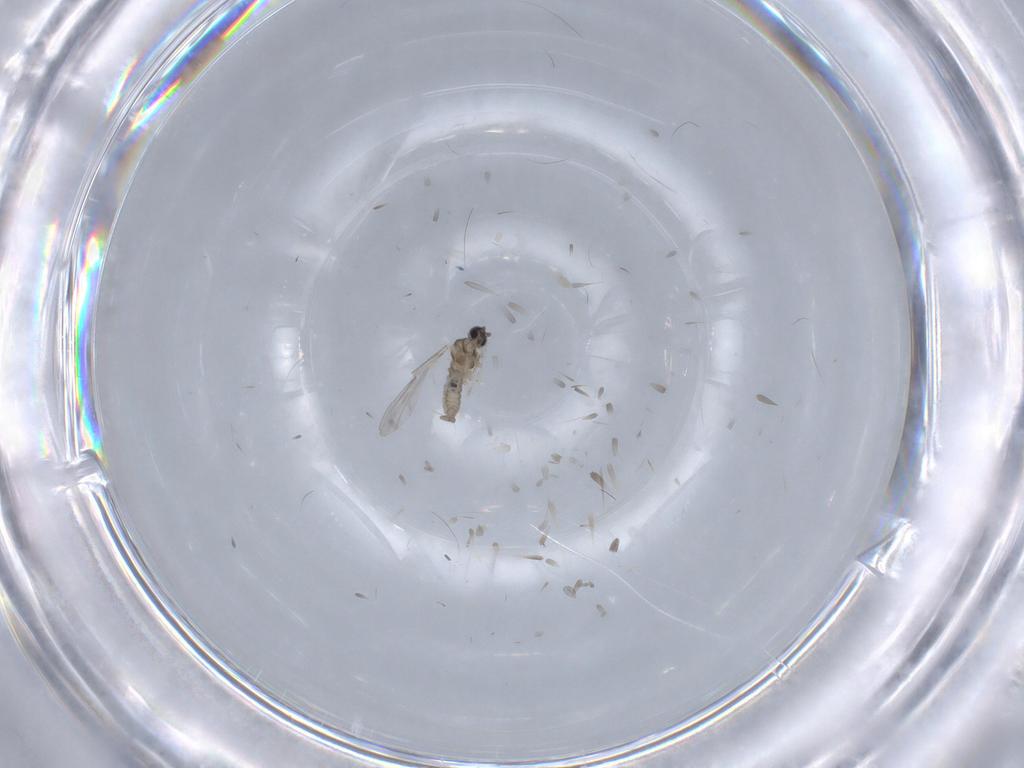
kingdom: Animalia
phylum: Arthropoda
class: Insecta
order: Diptera
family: Cecidomyiidae
